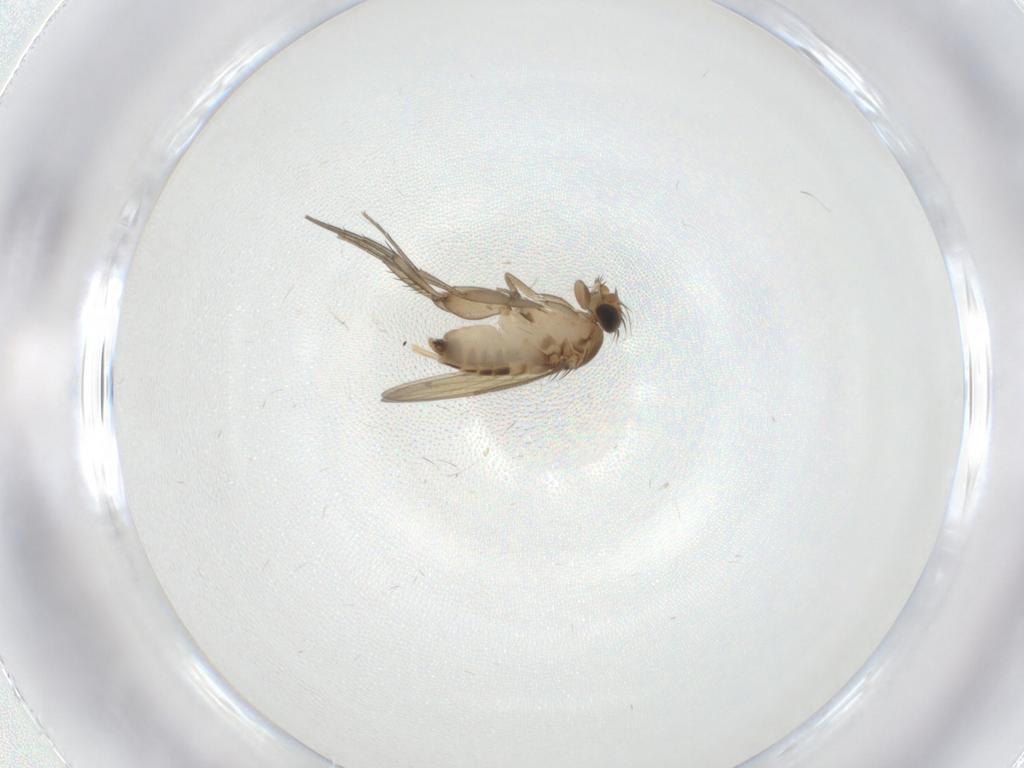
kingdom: Animalia
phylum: Arthropoda
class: Insecta
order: Diptera
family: Phoridae
